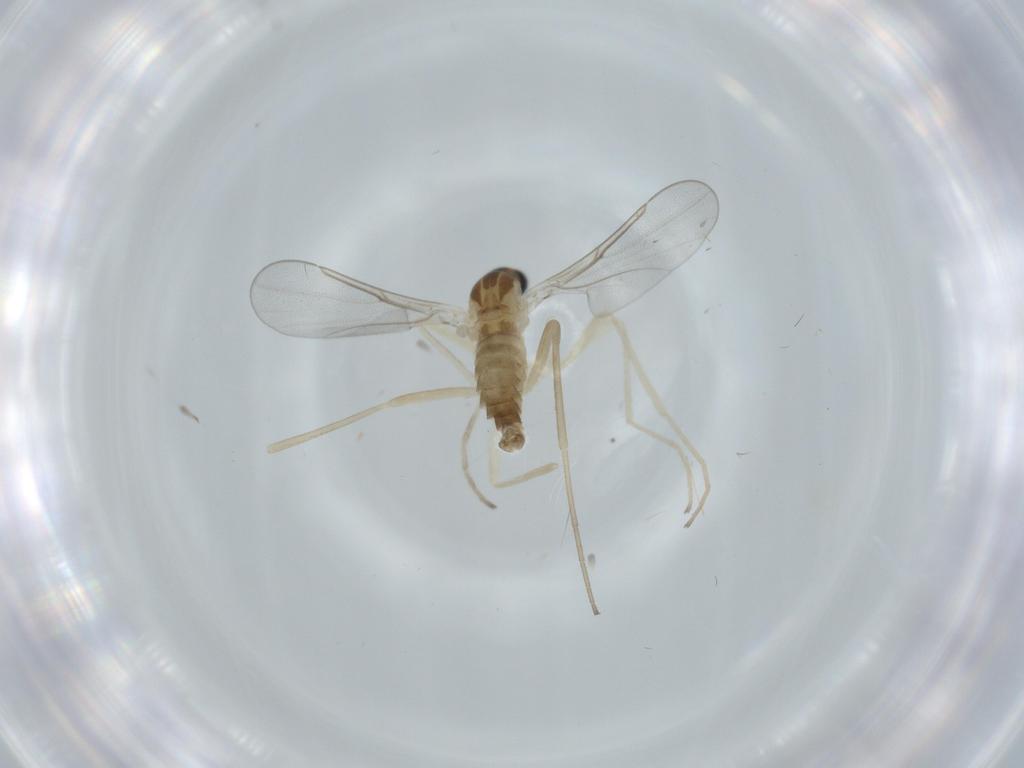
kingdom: Animalia
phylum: Arthropoda
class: Insecta
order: Diptera
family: Cecidomyiidae
